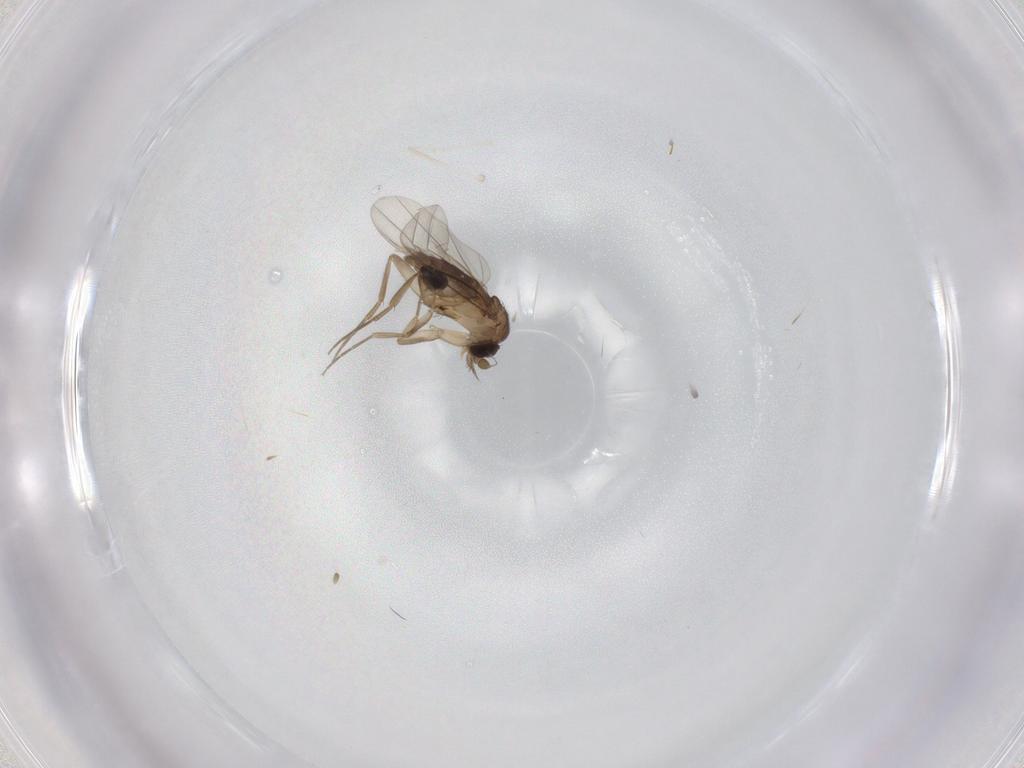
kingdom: Animalia
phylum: Arthropoda
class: Insecta
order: Diptera
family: Cecidomyiidae
